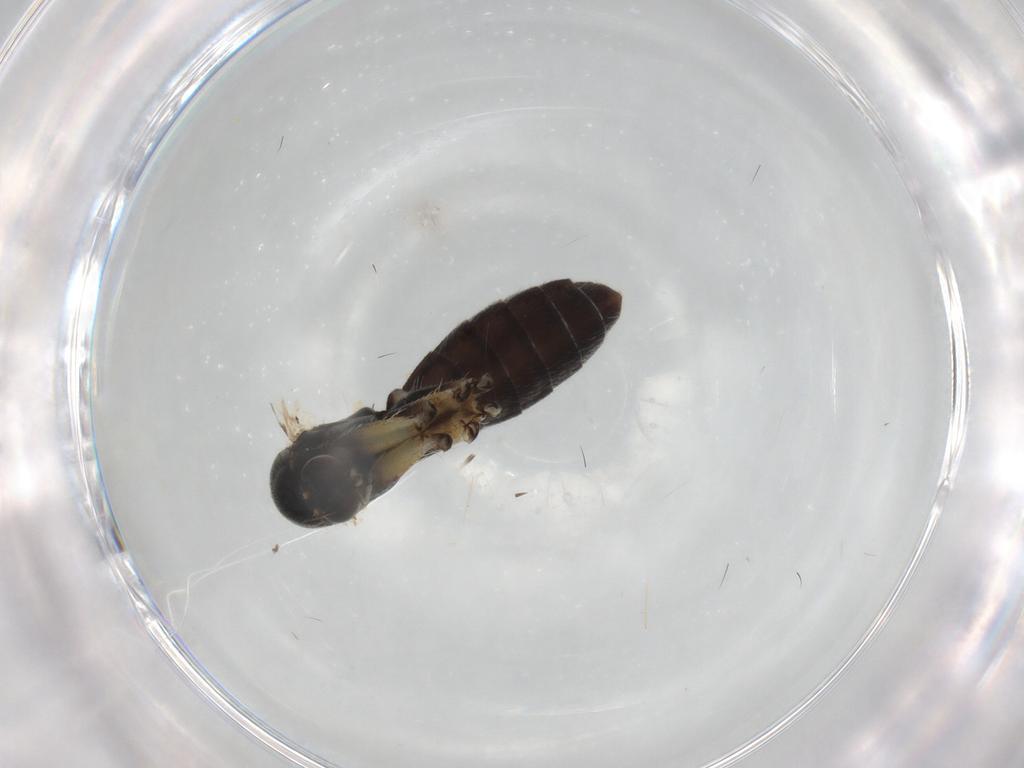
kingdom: Animalia
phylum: Arthropoda
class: Insecta
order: Diptera
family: Mycetophilidae
